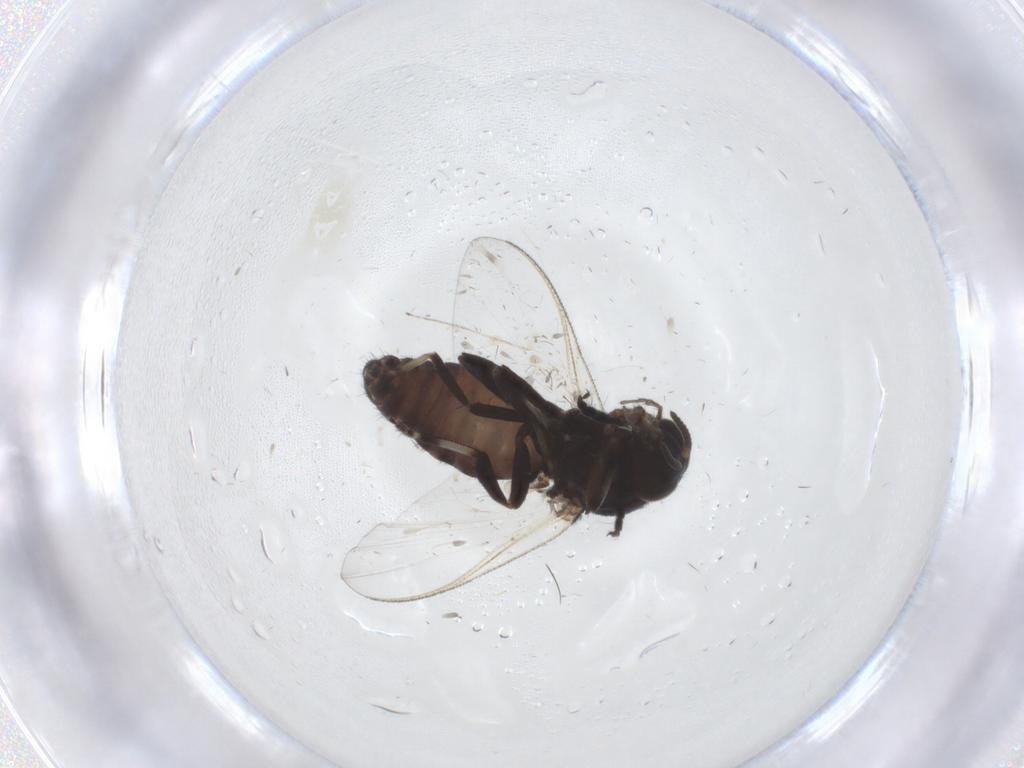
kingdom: Animalia
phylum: Arthropoda
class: Insecta
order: Diptera
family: Simuliidae
